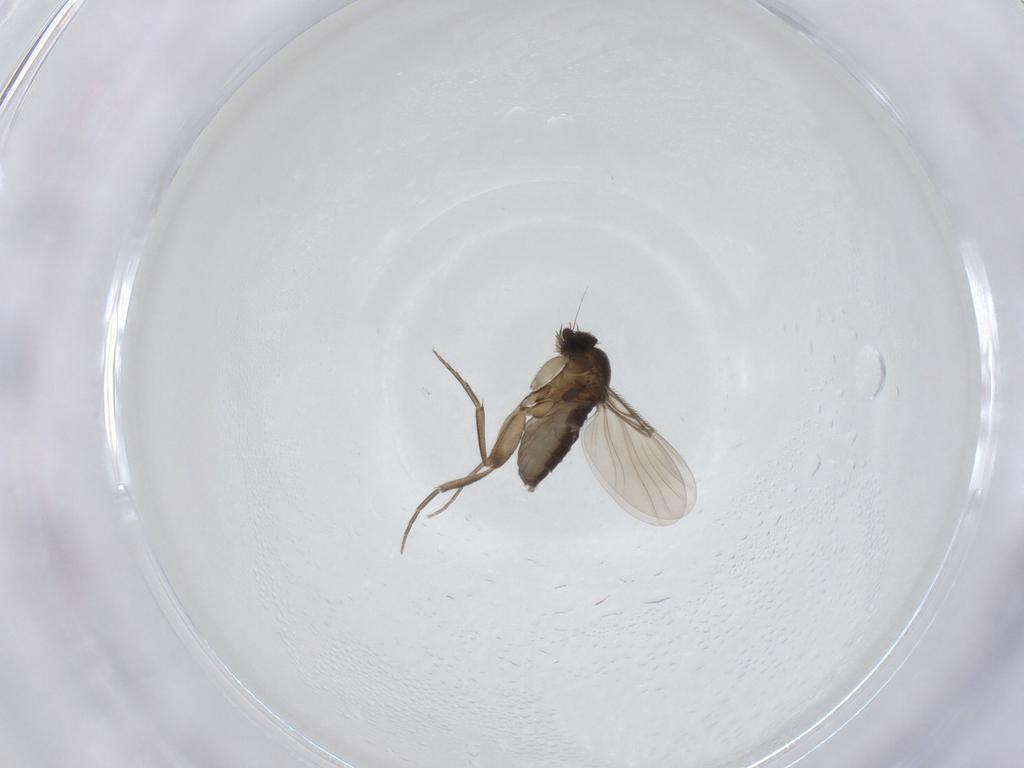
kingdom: Animalia
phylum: Arthropoda
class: Insecta
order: Diptera
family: Phoridae
